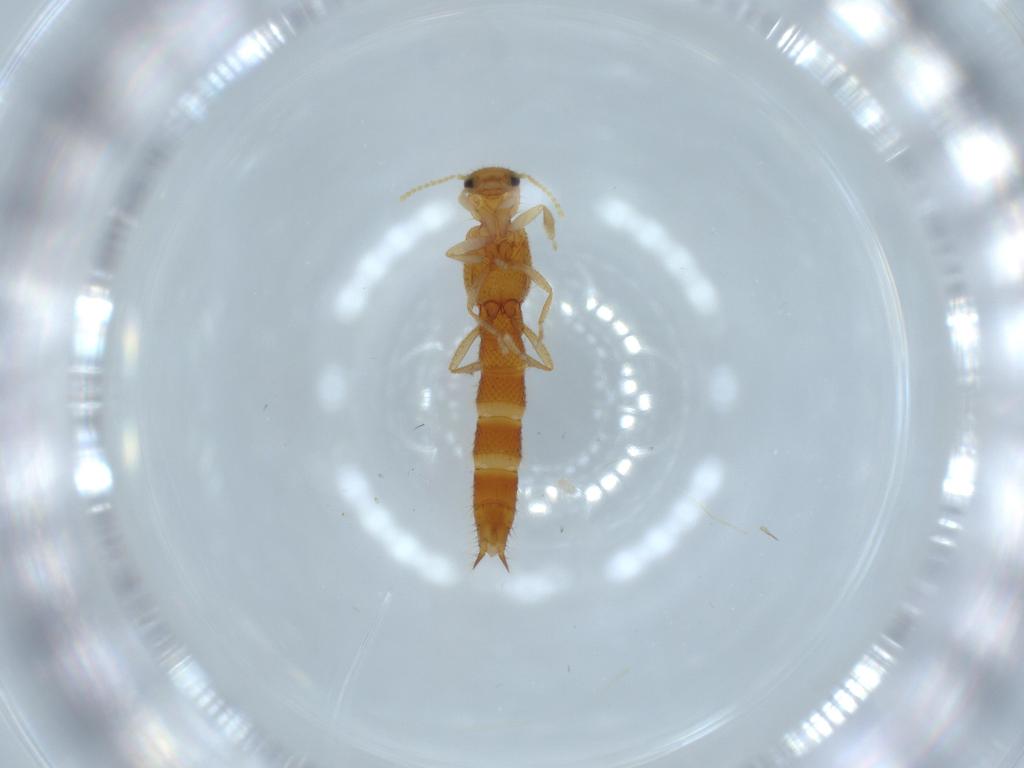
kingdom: Animalia
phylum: Arthropoda
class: Insecta
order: Coleoptera
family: Staphylinidae
